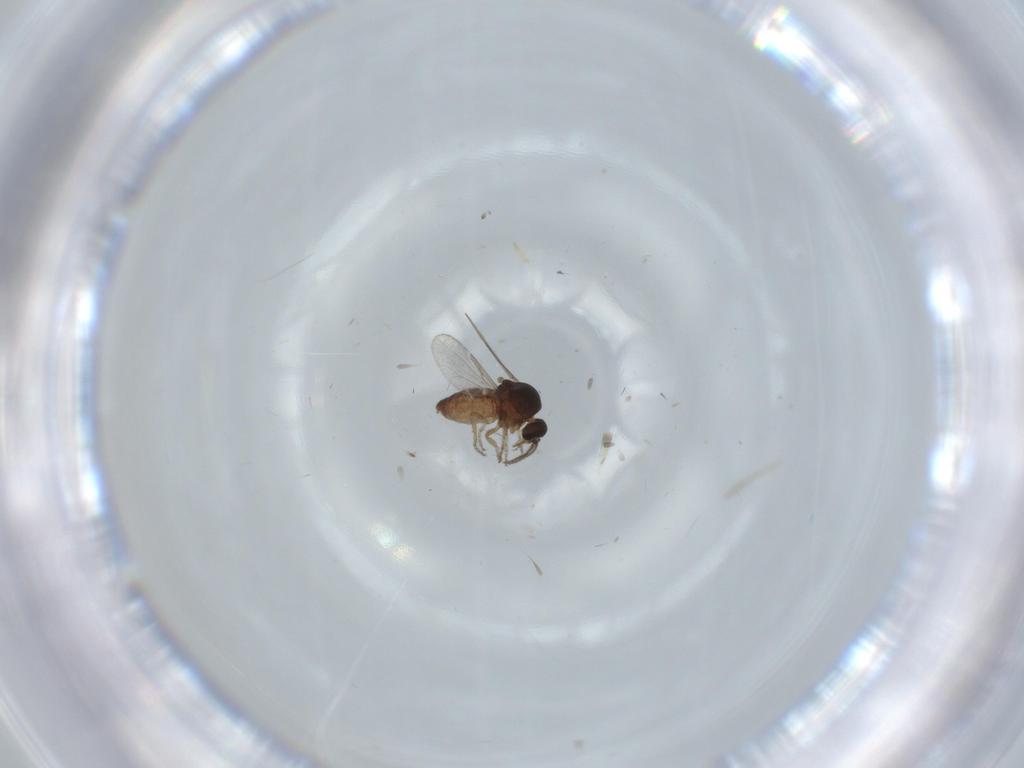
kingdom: Animalia
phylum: Arthropoda
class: Insecta
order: Diptera
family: Ceratopogonidae
